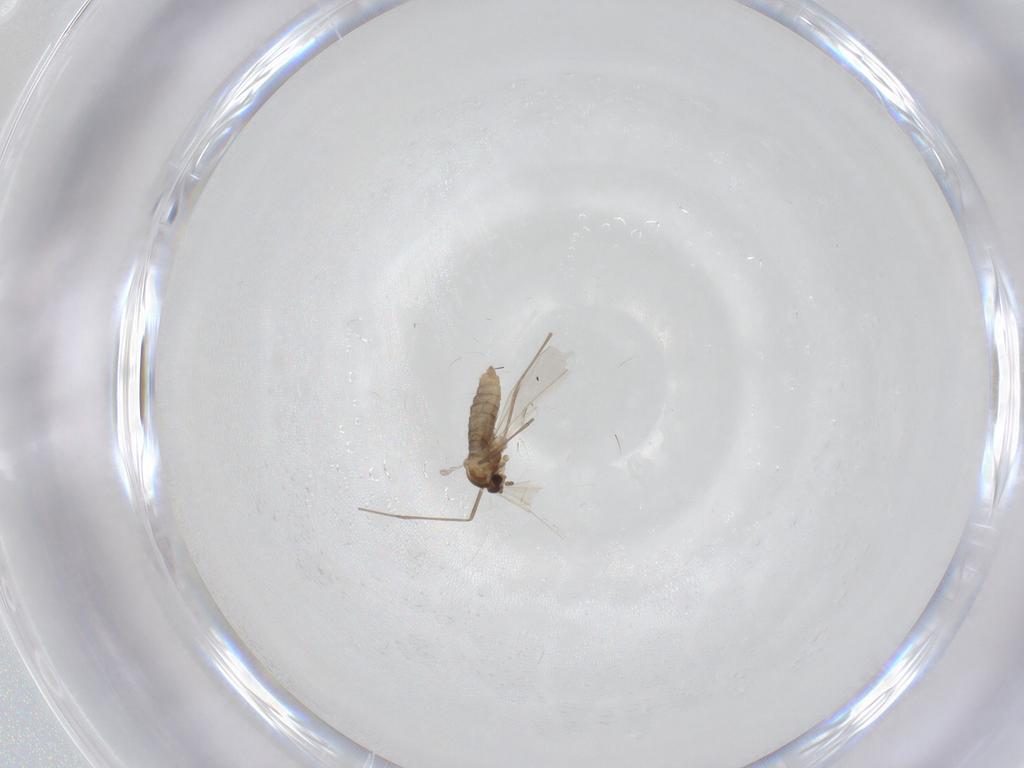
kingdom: Animalia
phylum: Arthropoda
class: Insecta
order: Diptera
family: Cecidomyiidae
